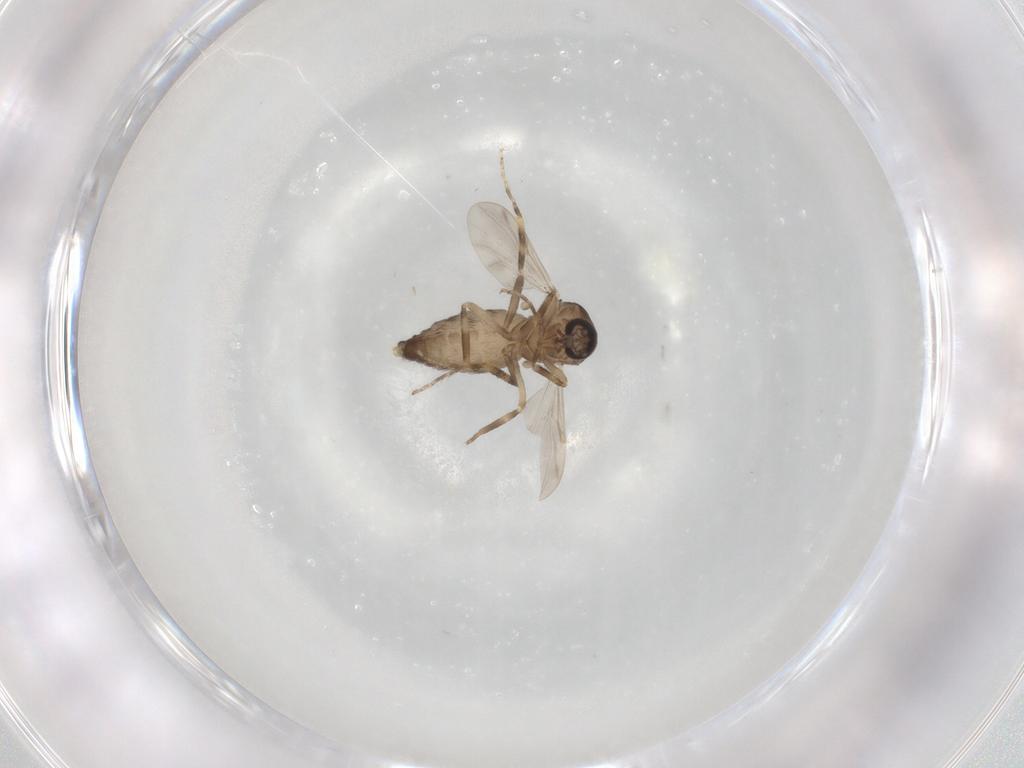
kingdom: Animalia
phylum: Arthropoda
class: Insecta
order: Diptera
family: Ceratopogonidae
